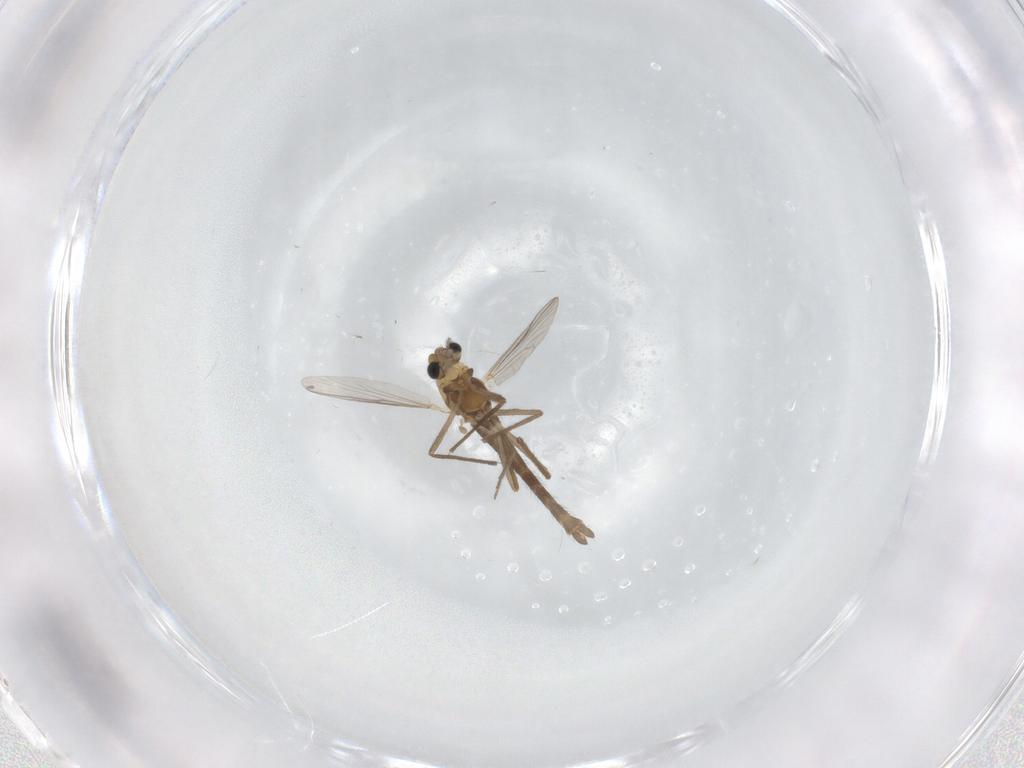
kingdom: Animalia
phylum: Arthropoda
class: Insecta
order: Diptera
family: Chironomidae
